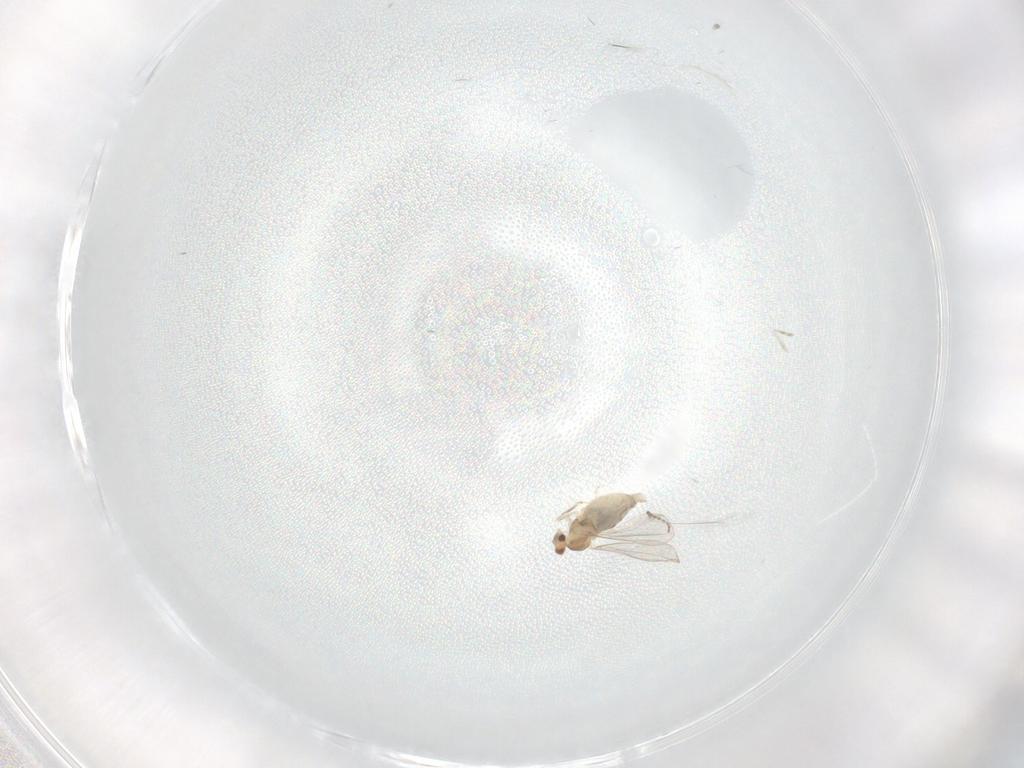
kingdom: Animalia
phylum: Arthropoda
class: Insecta
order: Diptera
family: Cecidomyiidae
